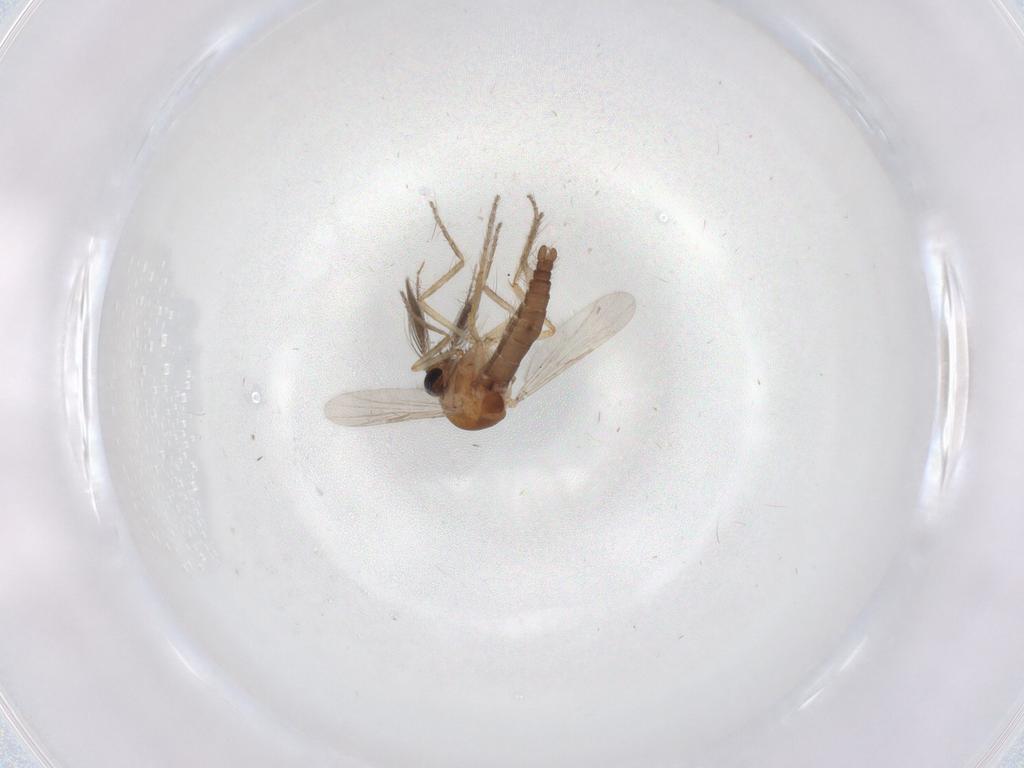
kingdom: Animalia
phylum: Arthropoda
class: Insecta
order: Diptera
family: Ceratopogonidae
